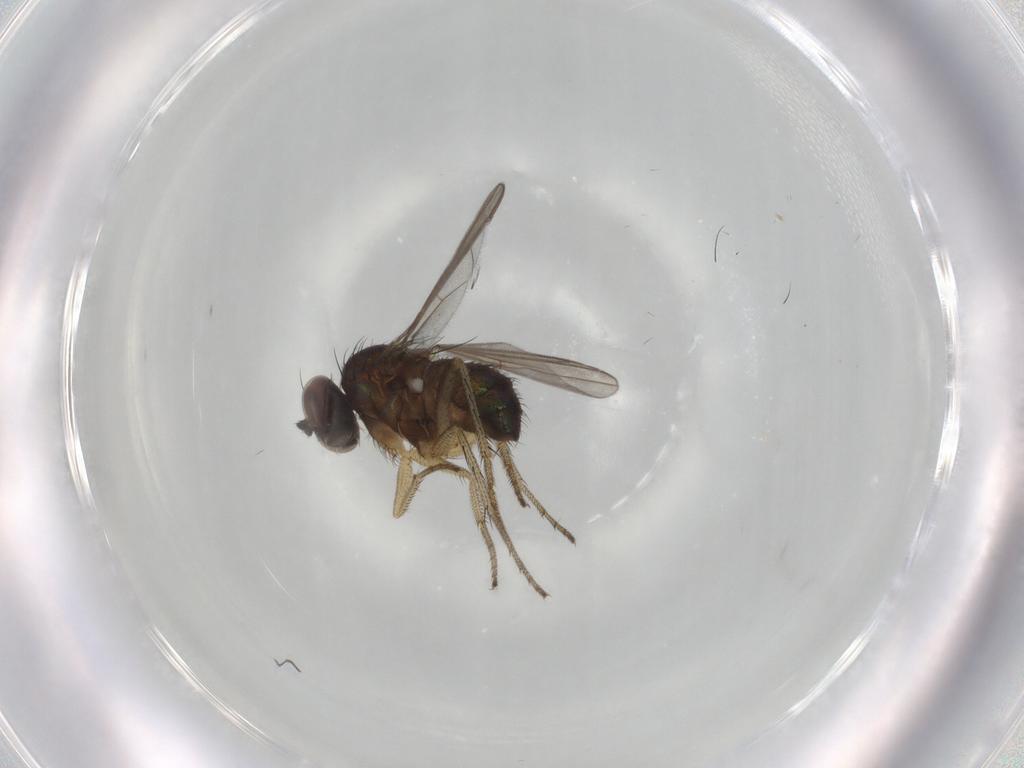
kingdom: Animalia
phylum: Arthropoda
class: Insecta
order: Diptera
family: Dolichopodidae
